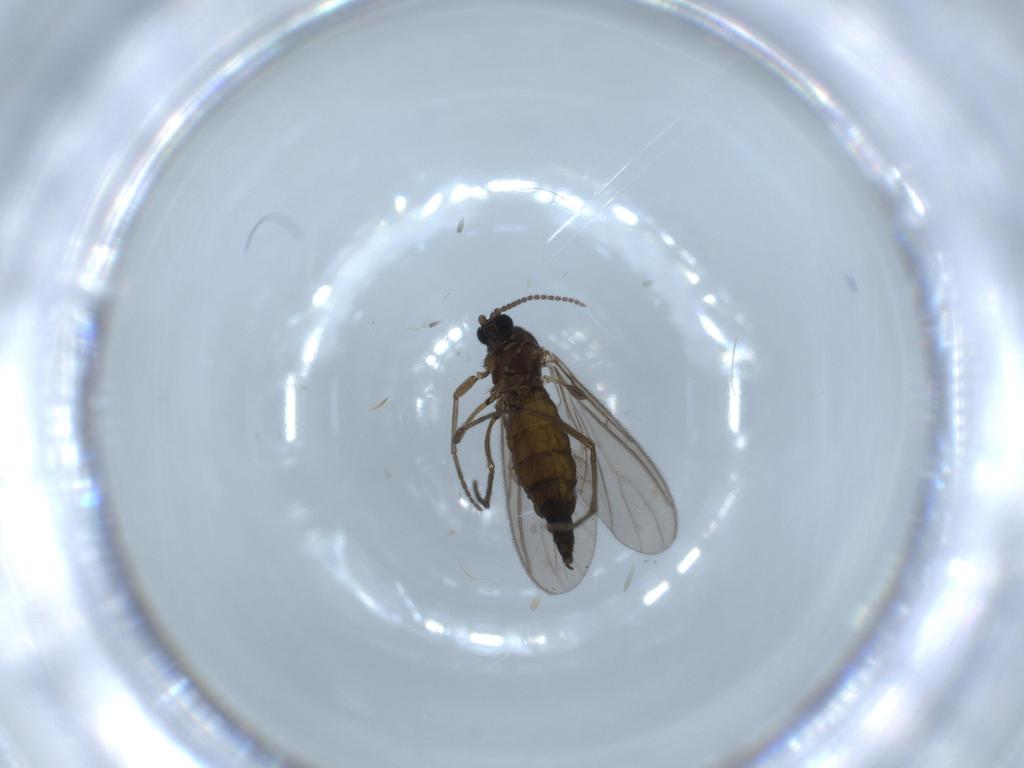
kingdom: Animalia
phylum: Arthropoda
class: Insecta
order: Diptera
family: Sciaridae
